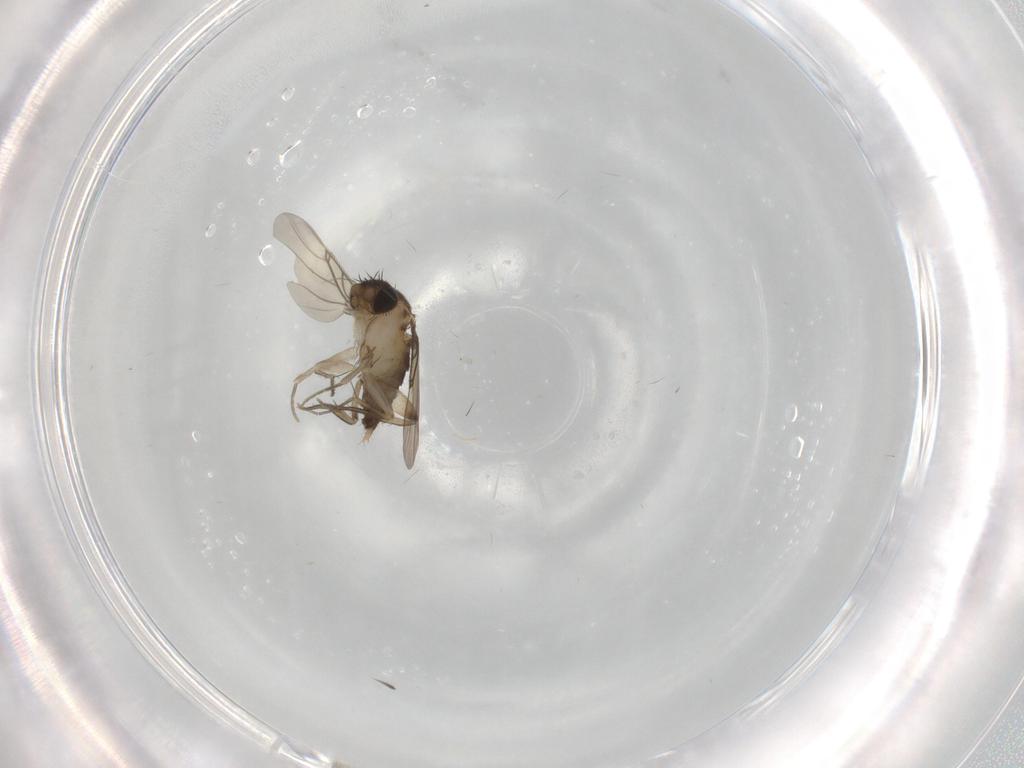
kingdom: Animalia
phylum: Arthropoda
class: Insecta
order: Diptera
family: Phoridae
